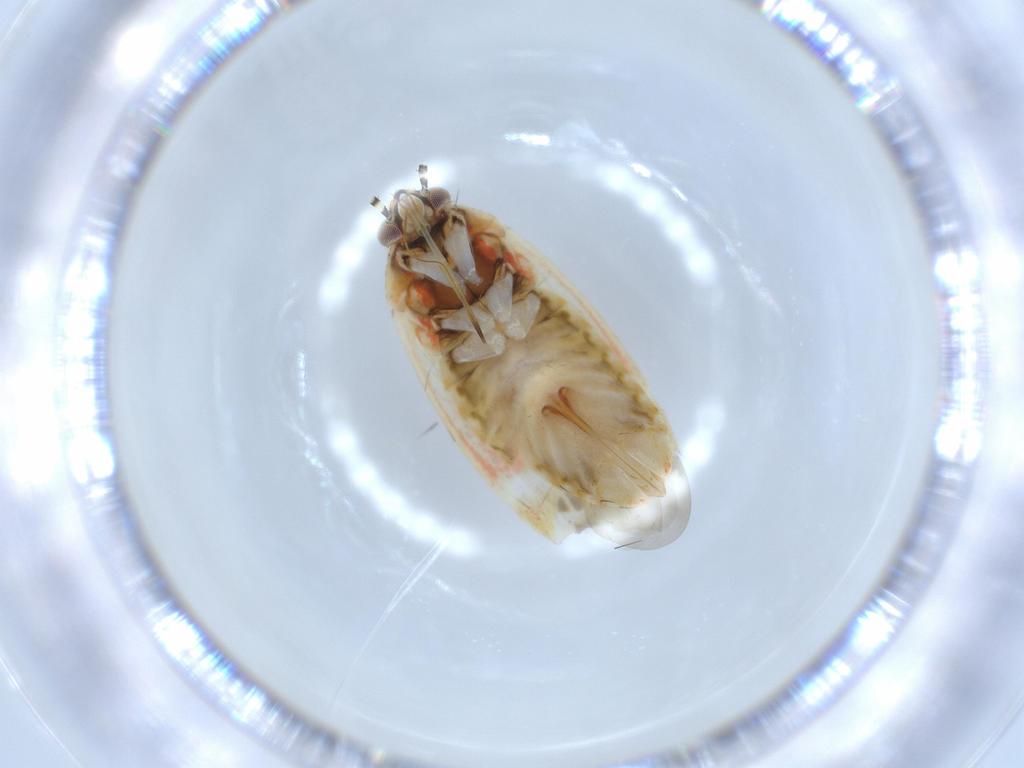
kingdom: Animalia
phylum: Arthropoda
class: Insecta
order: Hemiptera
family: Aphididae
